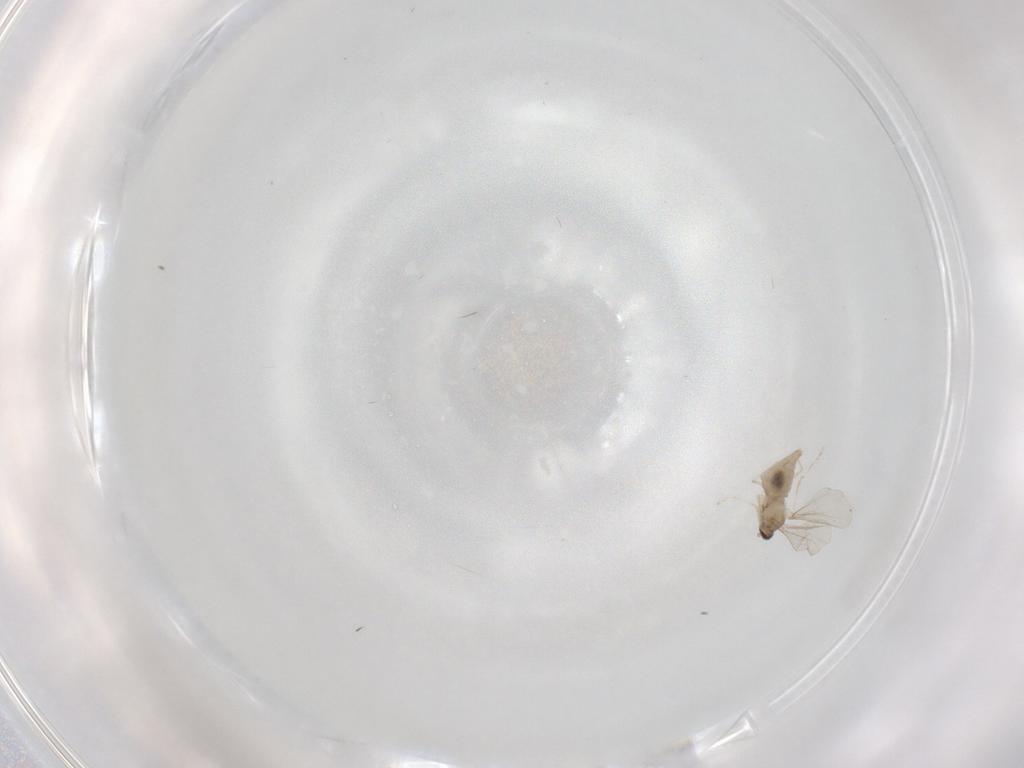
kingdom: Animalia
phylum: Arthropoda
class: Insecta
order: Diptera
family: Cecidomyiidae
